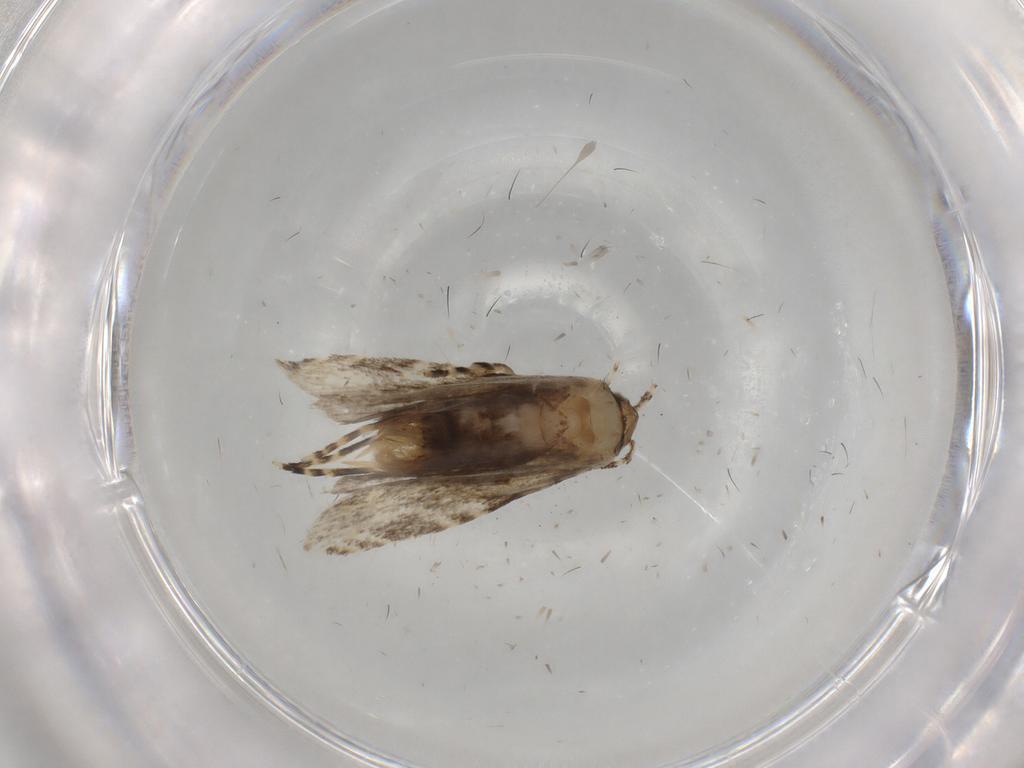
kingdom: Animalia
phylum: Arthropoda
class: Insecta
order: Lepidoptera
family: Tineidae
